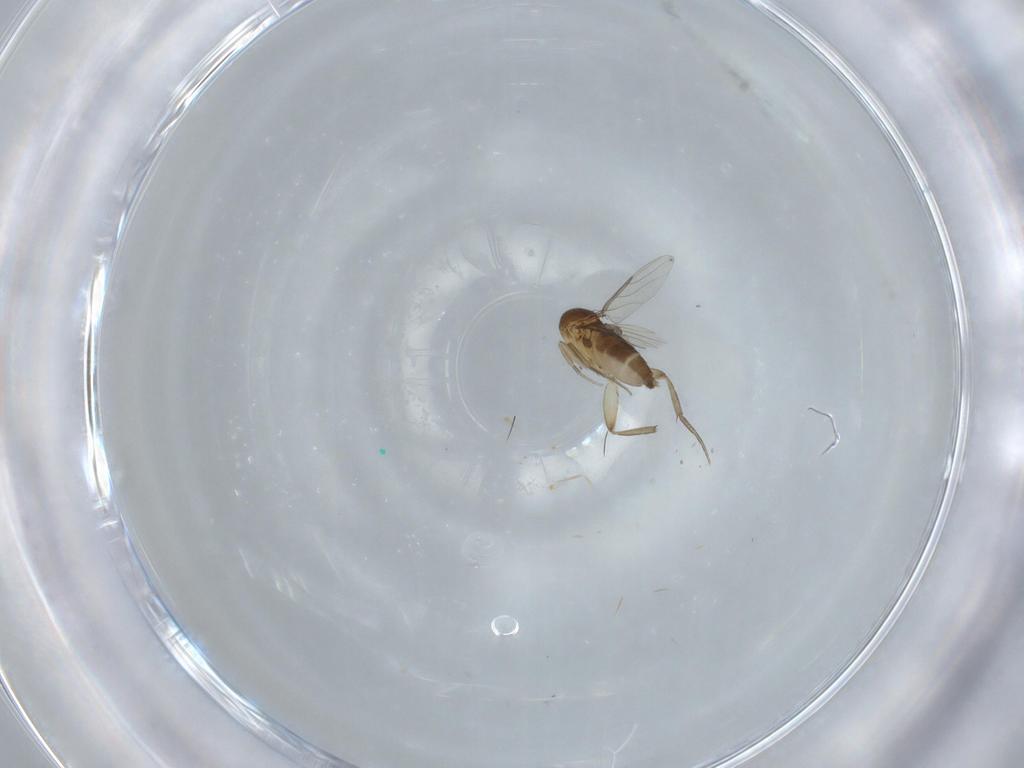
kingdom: Animalia
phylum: Arthropoda
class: Insecta
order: Diptera
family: Phoridae
